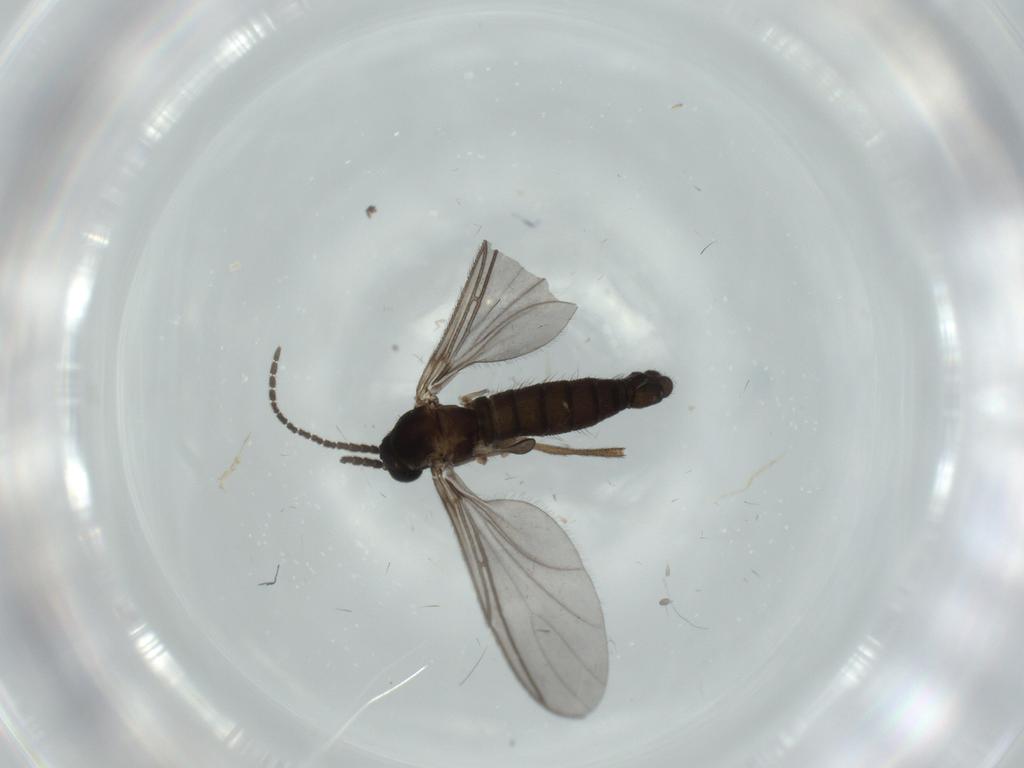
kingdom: Animalia
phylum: Arthropoda
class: Insecta
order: Diptera
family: Sciaridae
